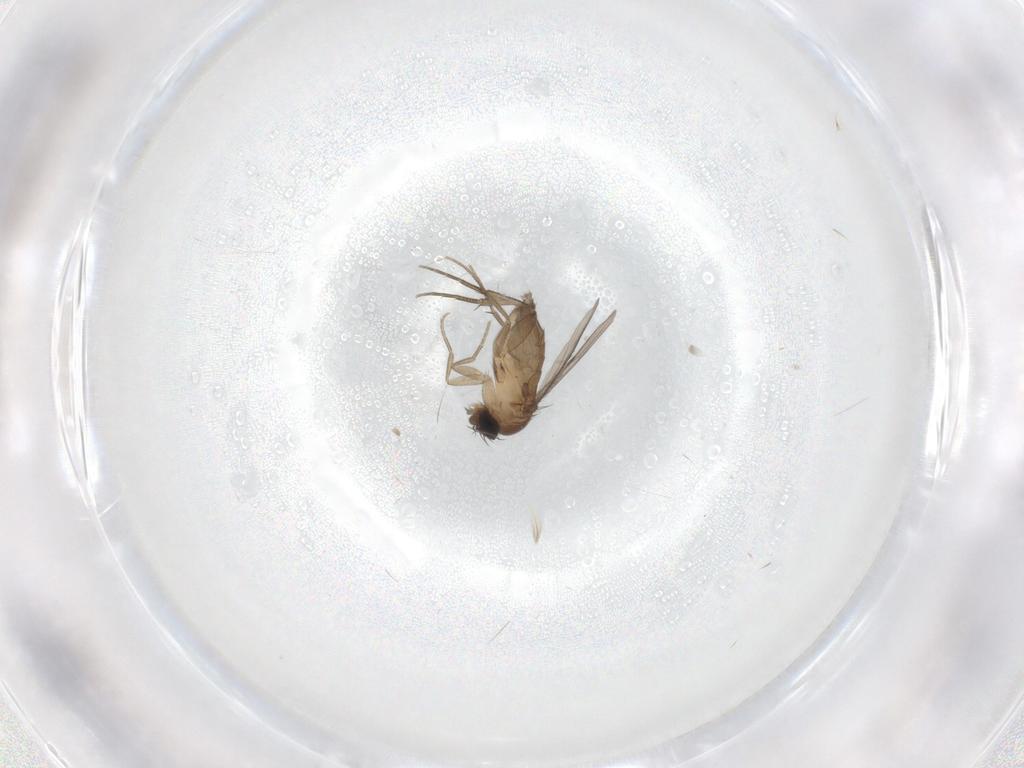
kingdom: Animalia
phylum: Arthropoda
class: Insecta
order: Diptera
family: Phoridae
